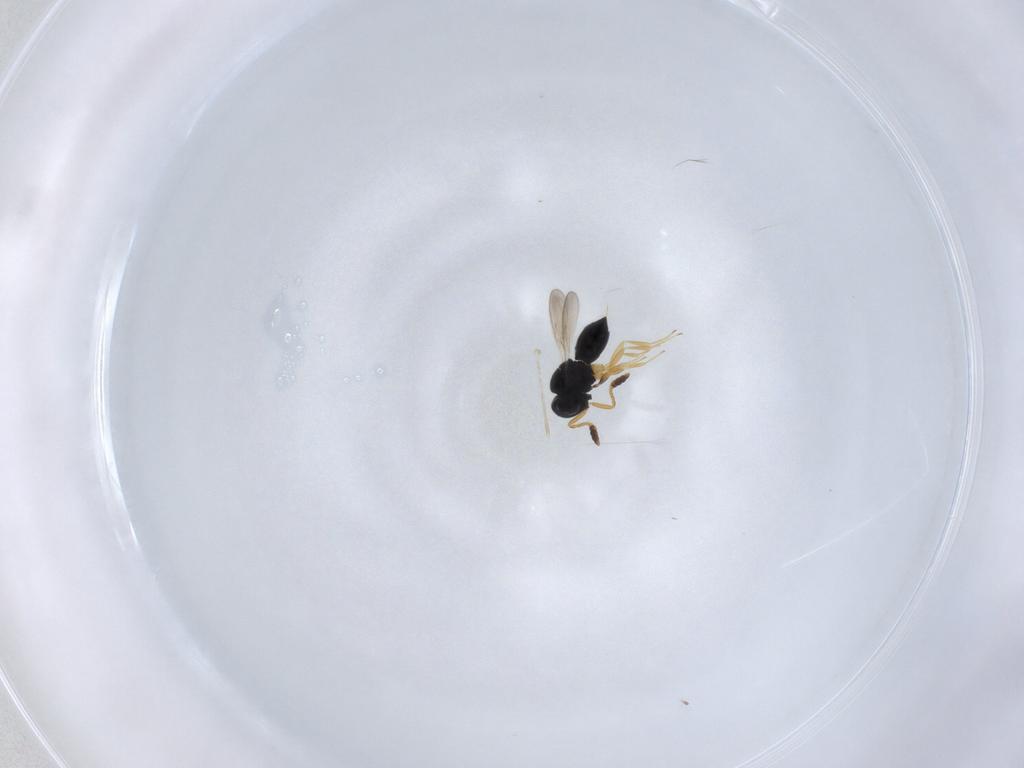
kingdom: Animalia
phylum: Arthropoda
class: Insecta
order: Hymenoptera
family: Scelionidae
